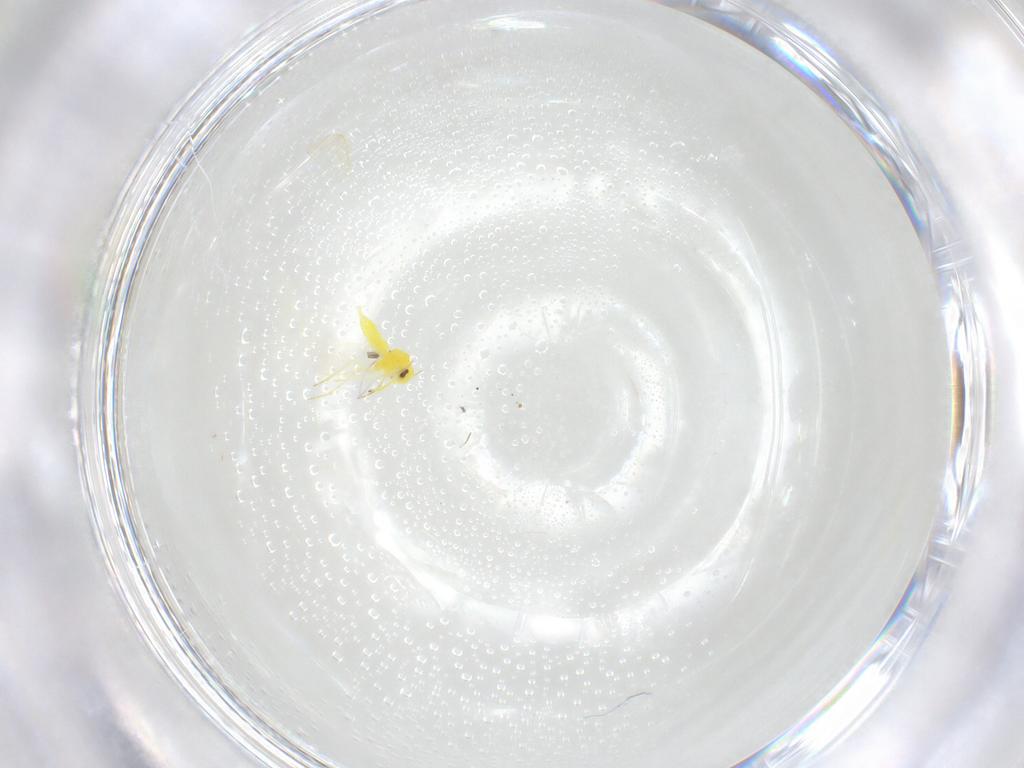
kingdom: Animalia
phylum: Arthropoda
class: Insecta
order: Hemiptera
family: Aleyrodidae
